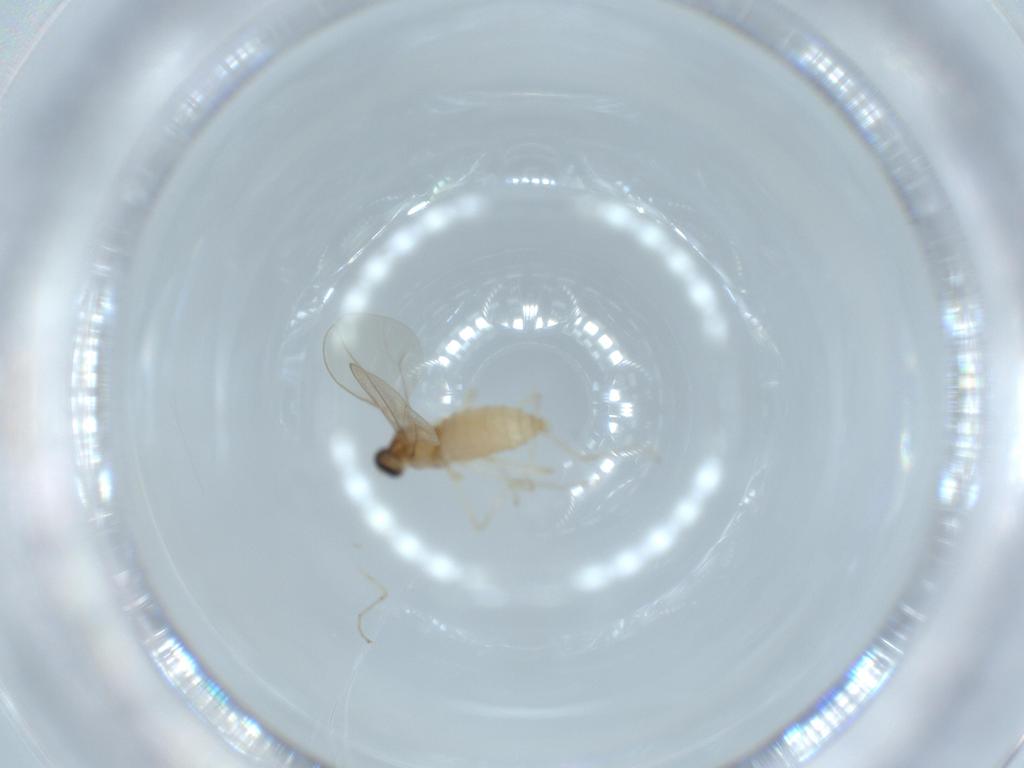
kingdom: Animalia
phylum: Arthropoda
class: Insecta
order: Diptera
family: Cecidomyiidae
